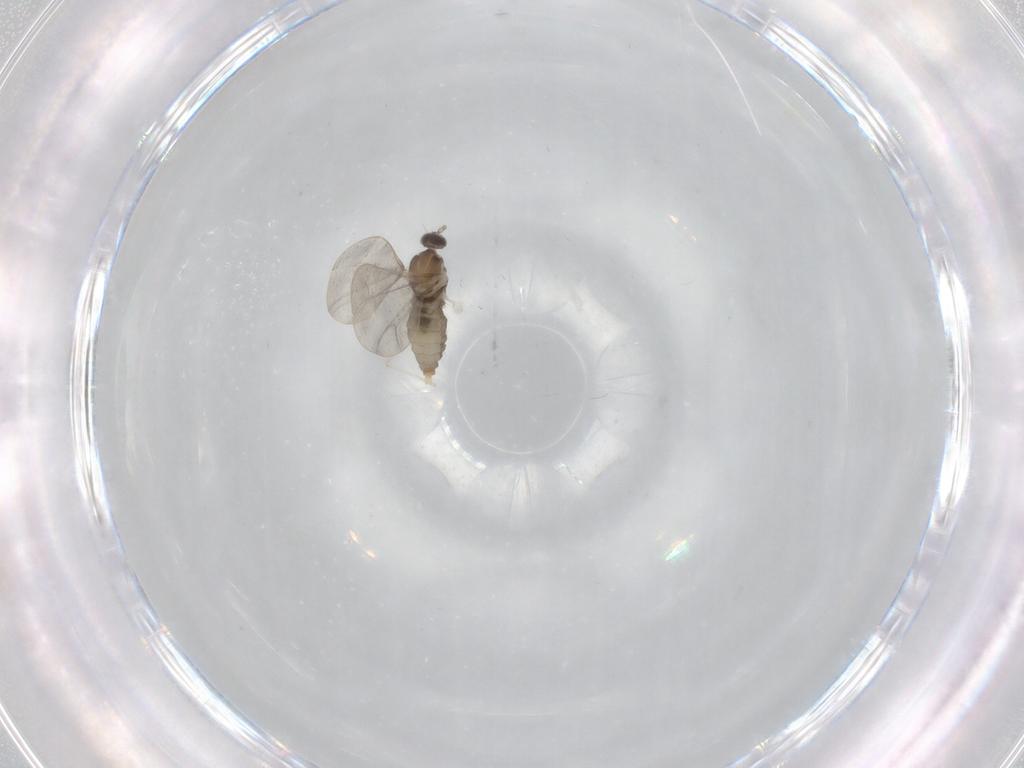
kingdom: Animalia
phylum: Arthropoda
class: Insecta
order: Diptera
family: Cecidomyiidae
